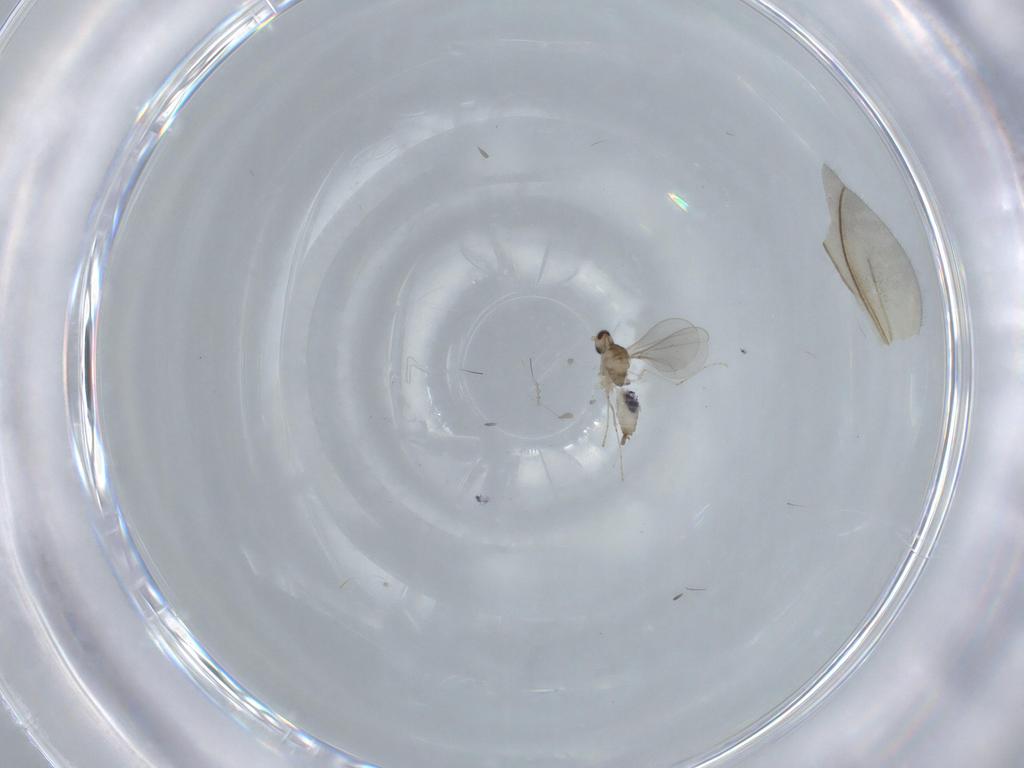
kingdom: Animalia
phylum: Arthropoda
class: Insecta
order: Diptera
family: Cecidomyiidae
